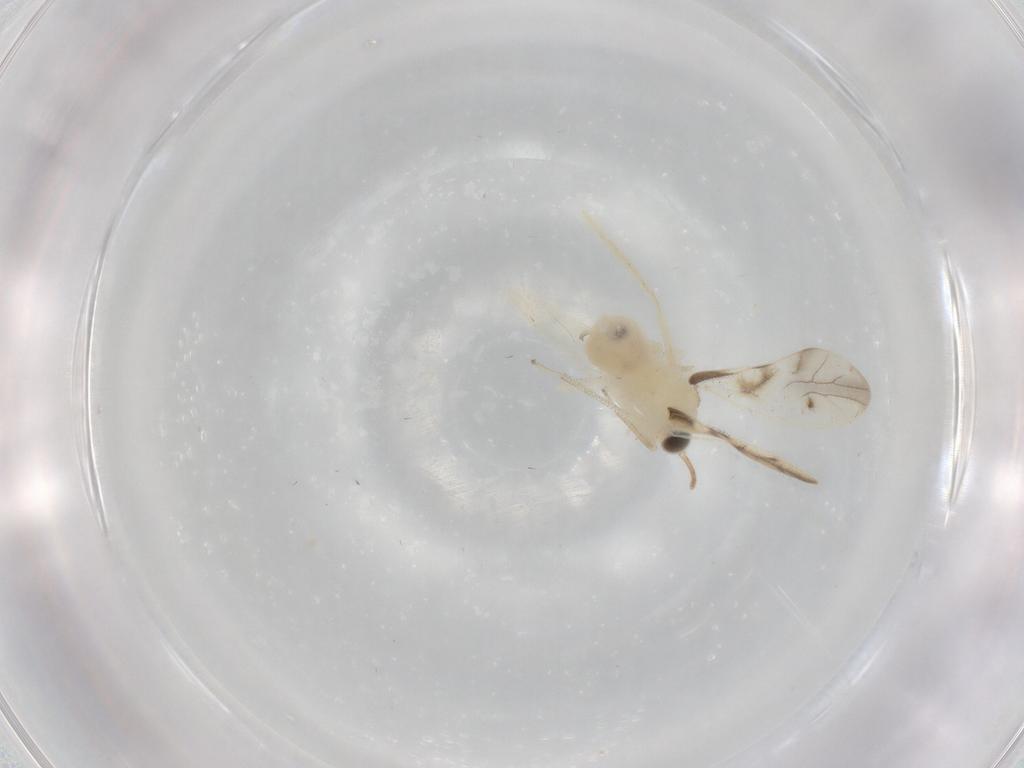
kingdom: Animalia
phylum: Arthropoda
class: Insecta
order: Psocodea
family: Caeciliusidae
